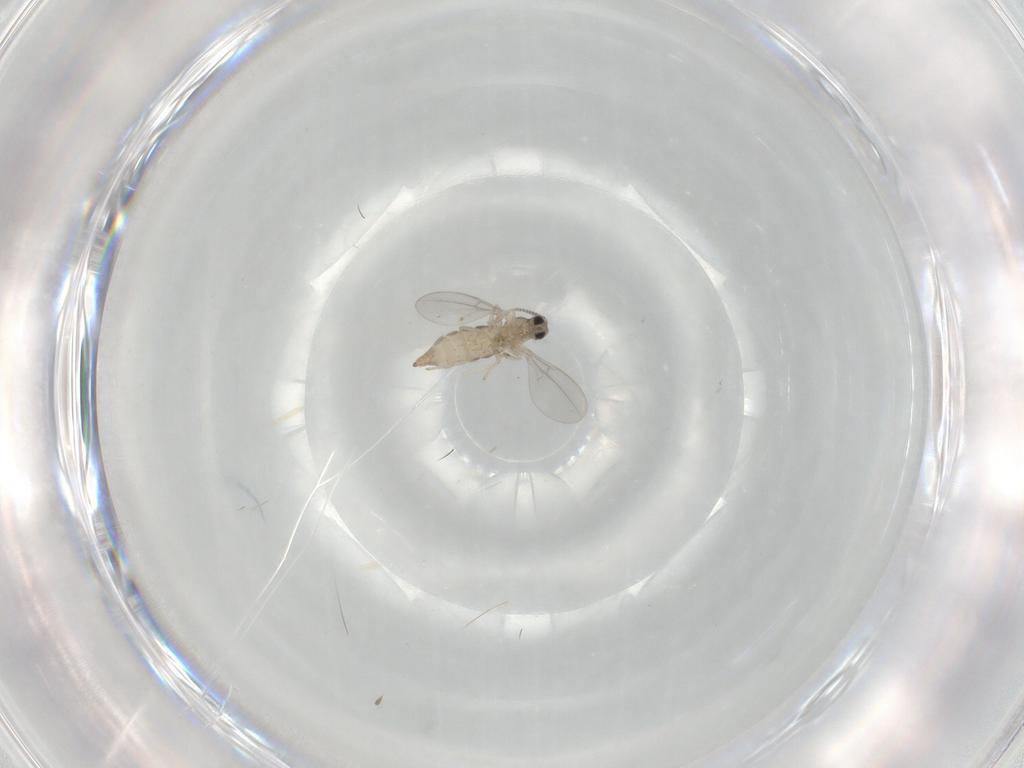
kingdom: Animalia
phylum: Arthropoda
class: Insecta
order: Diptera
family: Cecidomyiidae
